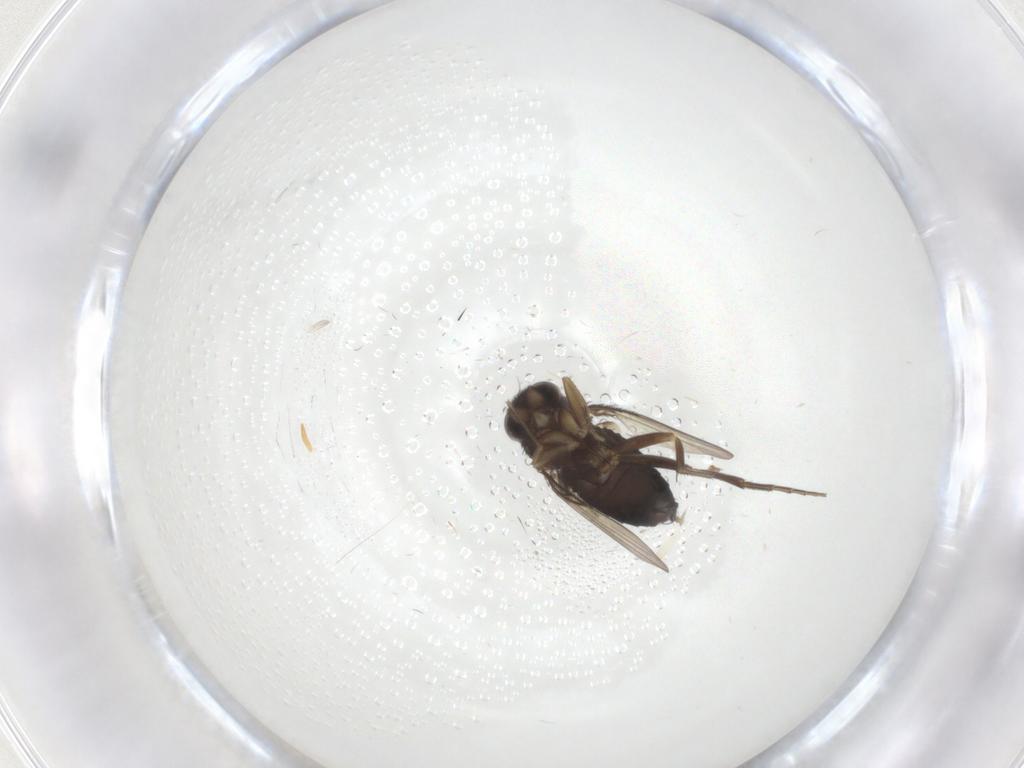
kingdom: Animalia
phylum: Arthropoda
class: Insecta
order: Diptera
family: Phoridae
